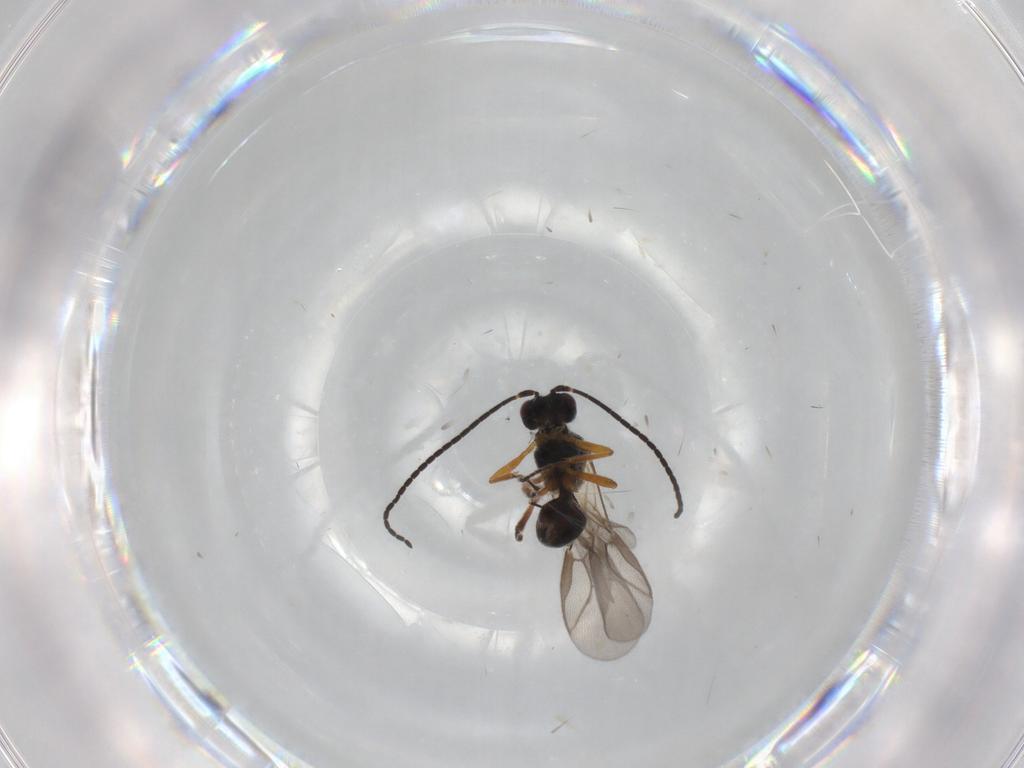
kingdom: Animalia
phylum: Arthropoda
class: Insecta
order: Hymenoptera
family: Braconidae
